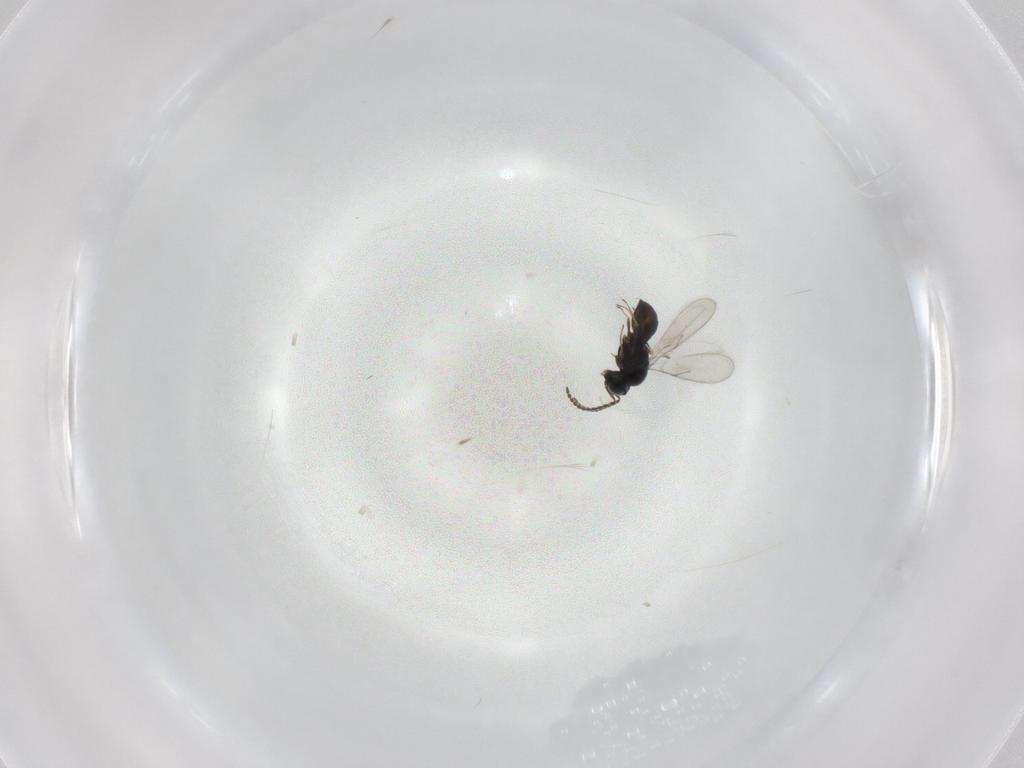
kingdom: Animalia
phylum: Arthropoda
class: Insecta
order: Hymenoptera
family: Scelionidae
